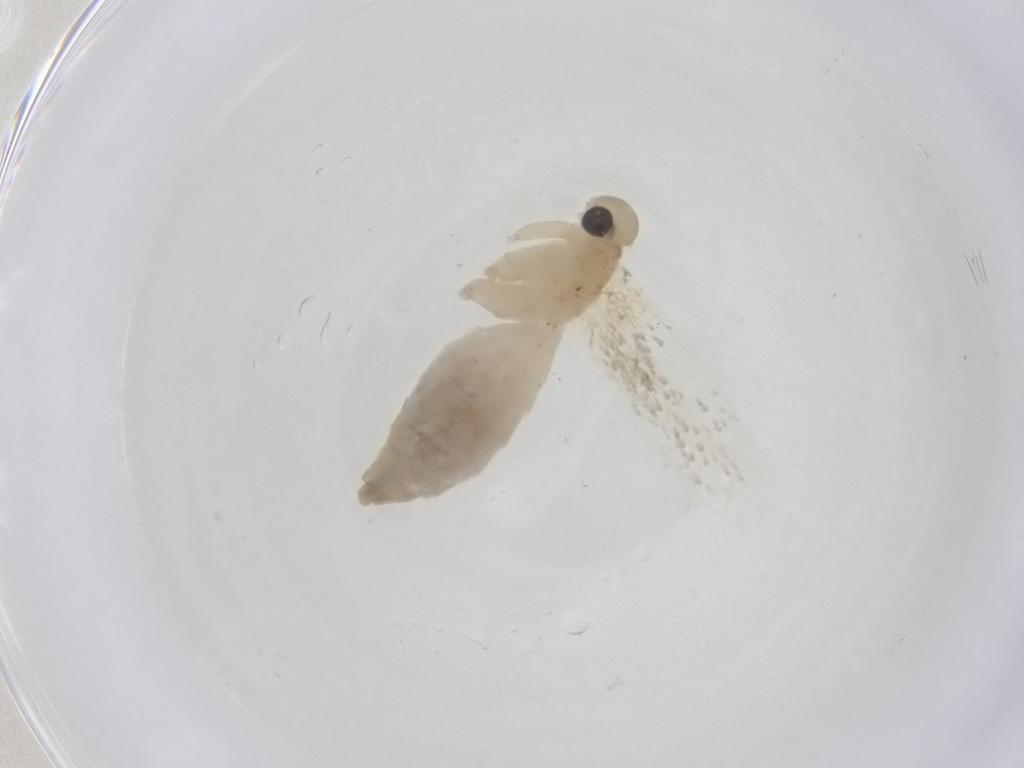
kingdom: Animalia
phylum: Arthropoda
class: Insecta
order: Lepidoptera
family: Erebidae
